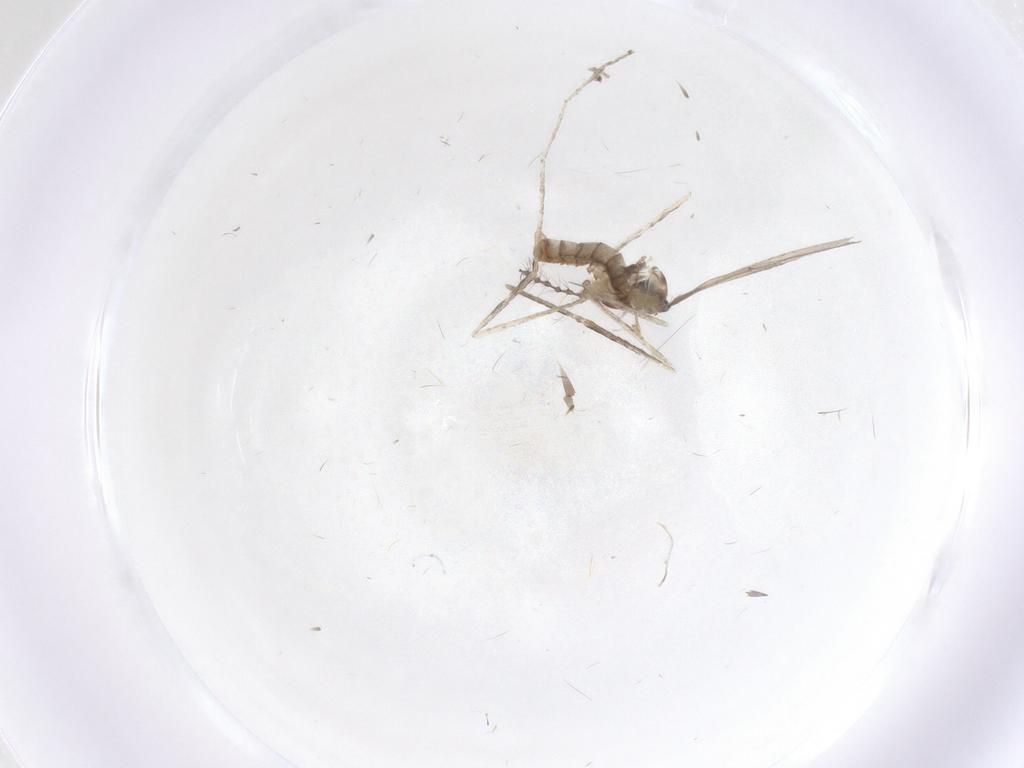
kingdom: Animalia
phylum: Arthropoda
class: Insecta
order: Diptera
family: Cecidomyiidae
